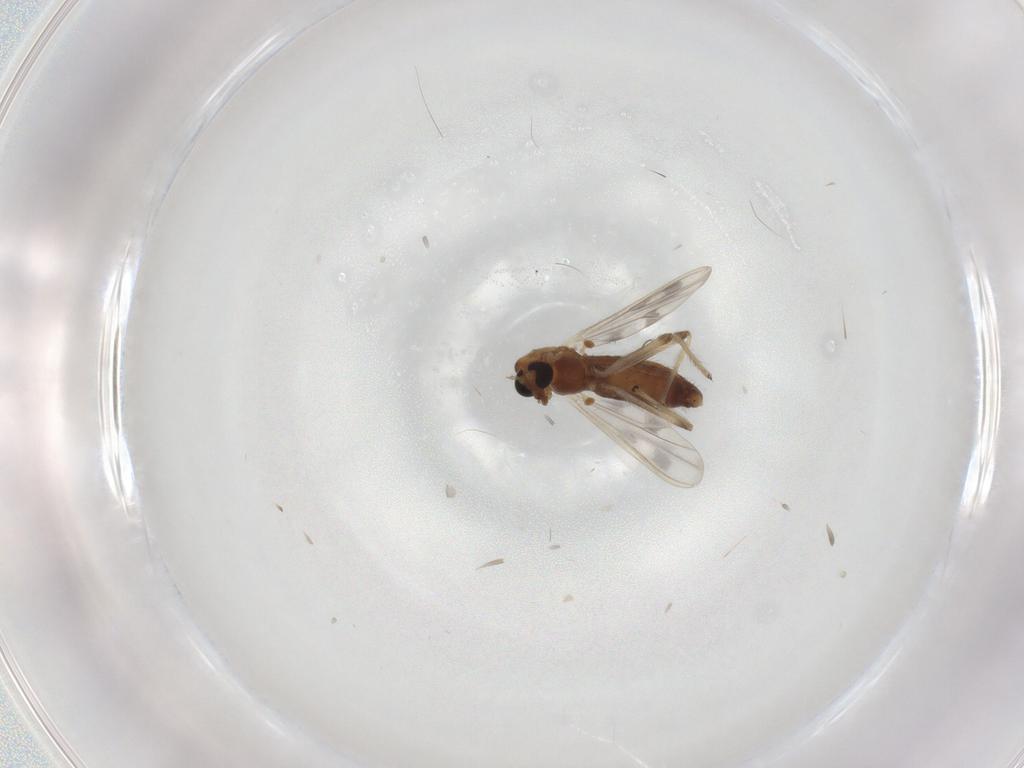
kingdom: Animalia
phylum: Arthropoda
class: Insecta
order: Diptera
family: Chironomidae
